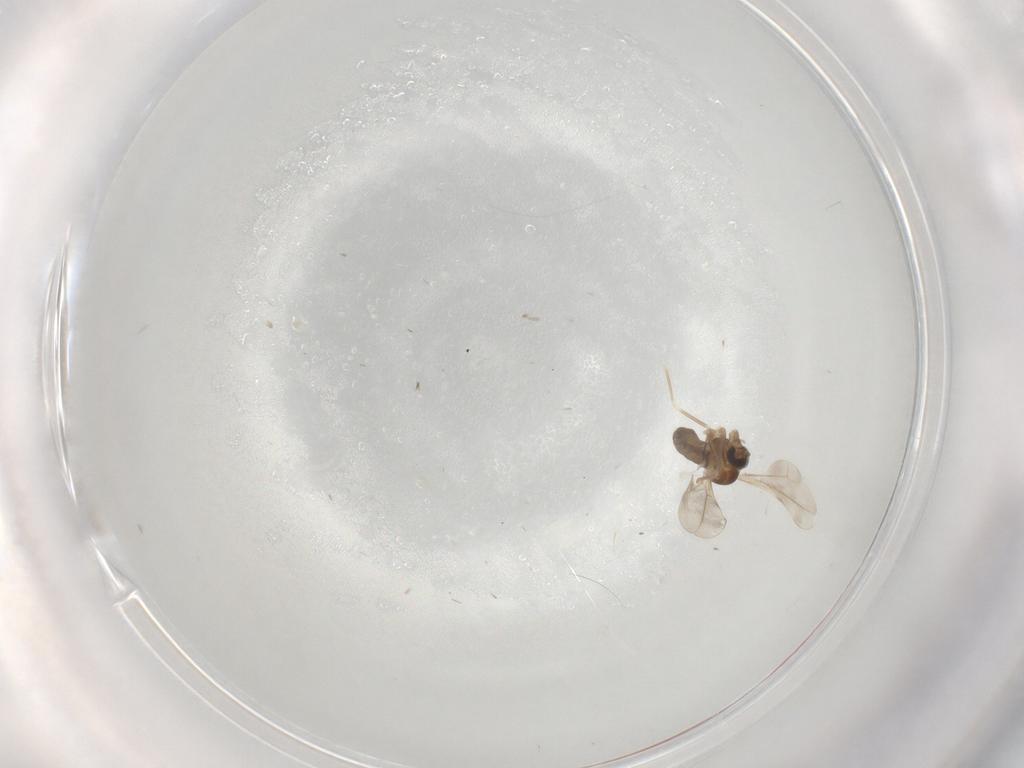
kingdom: Animalia
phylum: Arthropoda
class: Insecta
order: Diptera
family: Cecidomyiidae
